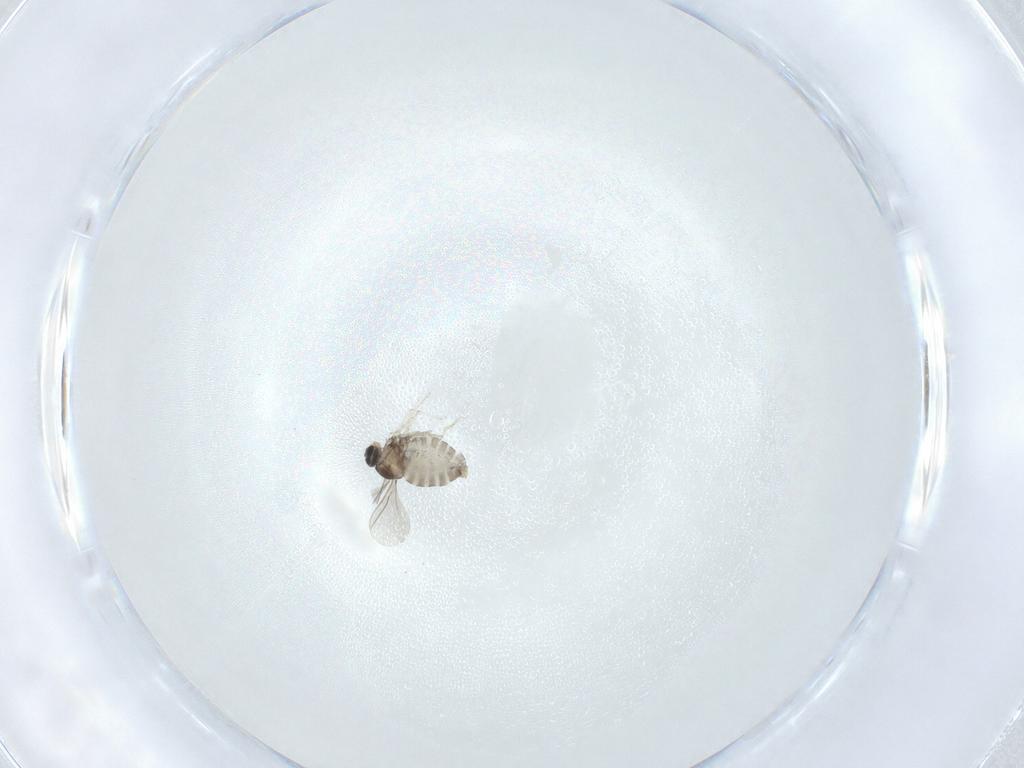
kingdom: Animalia
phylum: Arthropoda
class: Insecta
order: Diptera
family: Cecidomyiidae
